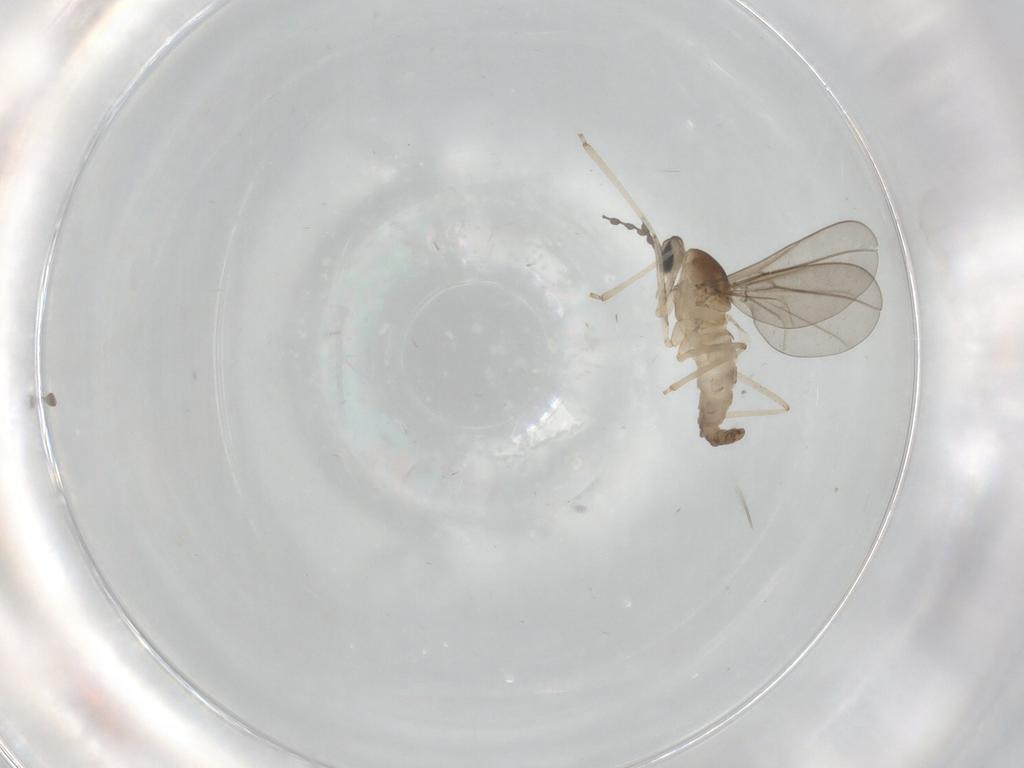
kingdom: Animalia
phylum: Arthropoda
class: Insecta
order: Diptera
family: Cecidomyiidae
